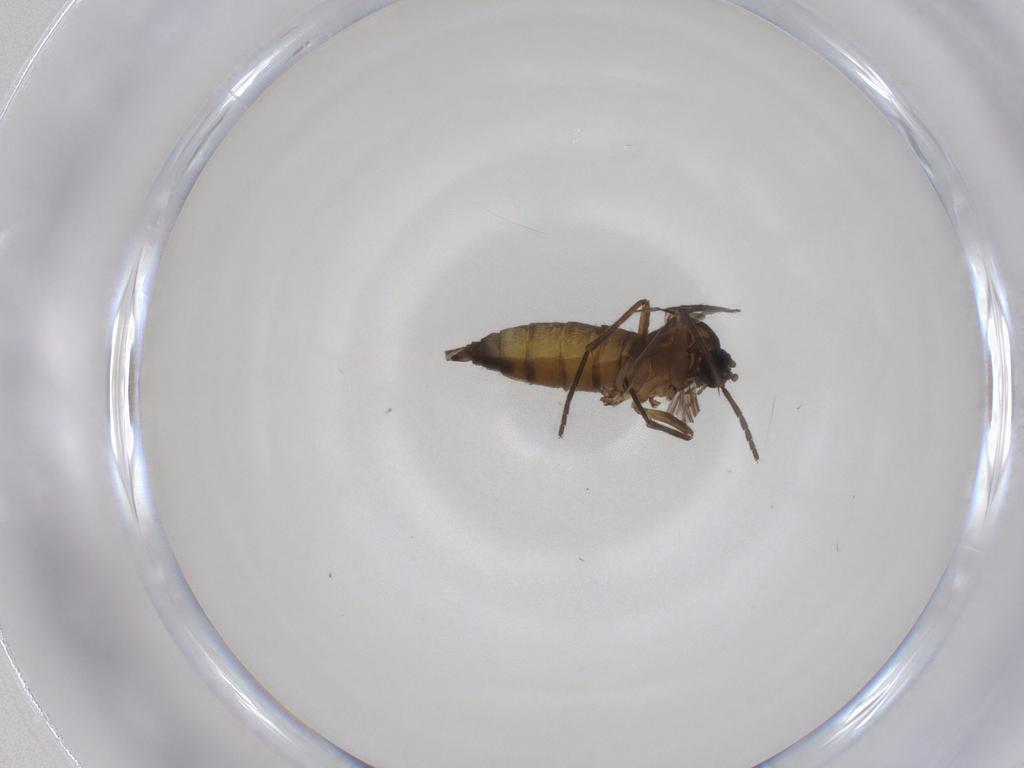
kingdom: Animalia
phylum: Arthropoda
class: Insecta
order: Diptera
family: Sciaridae
